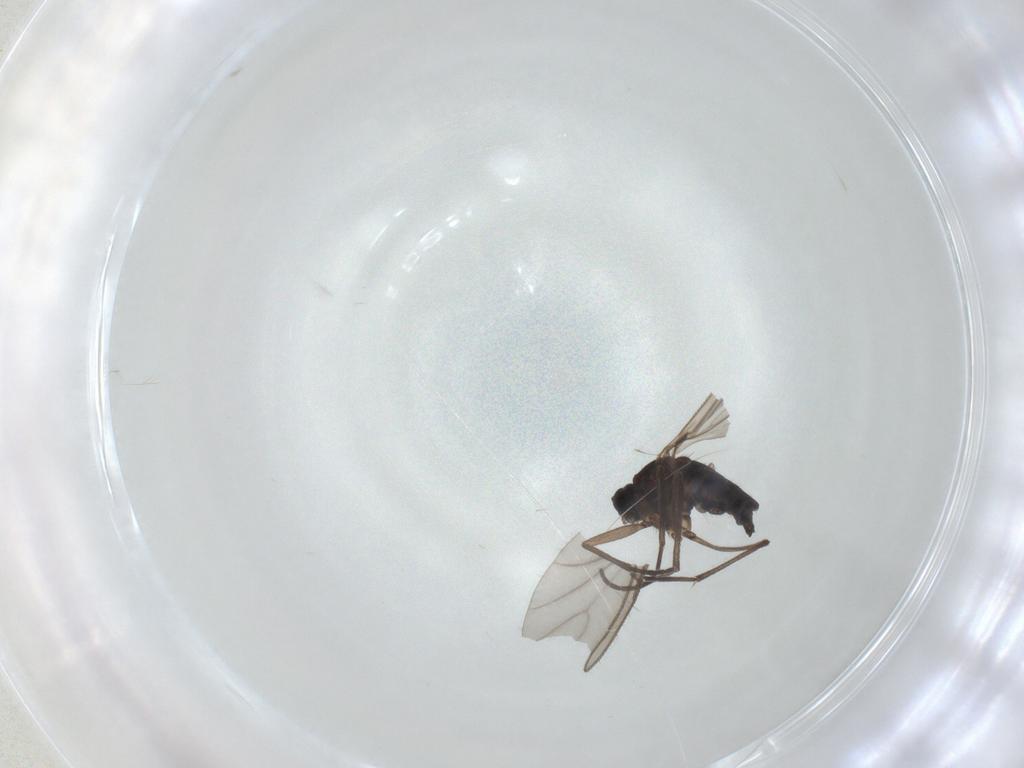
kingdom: Animalia
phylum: Arthropoda
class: Insecta
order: Diptera
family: Sciaridae
